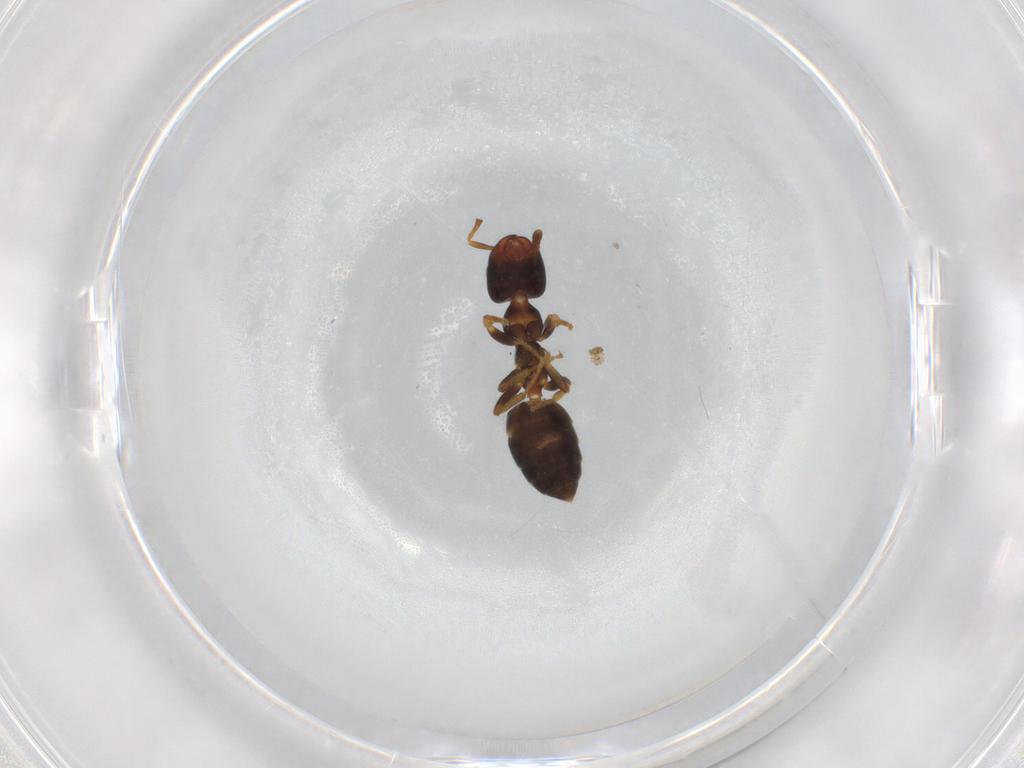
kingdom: Animalia
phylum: Arthropoda
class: Insecta
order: Hymenoptera
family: Formicidae
